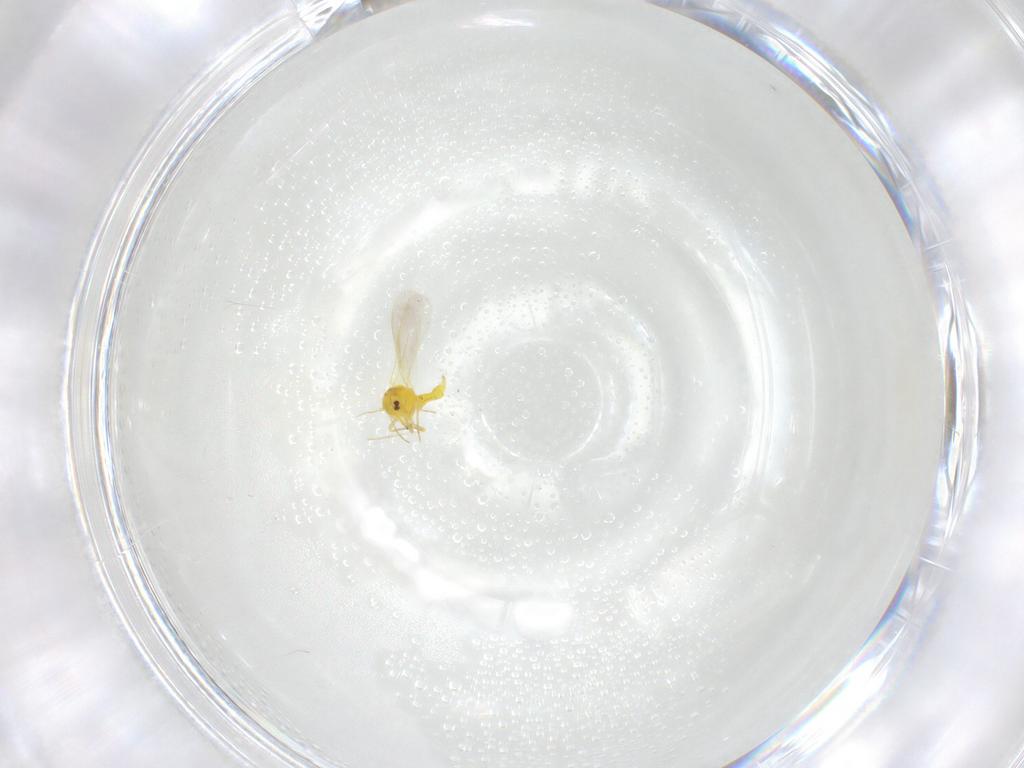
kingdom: Animalia
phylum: Arthropoda
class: Insecta
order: Hemiptera
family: Aleyrodidae
